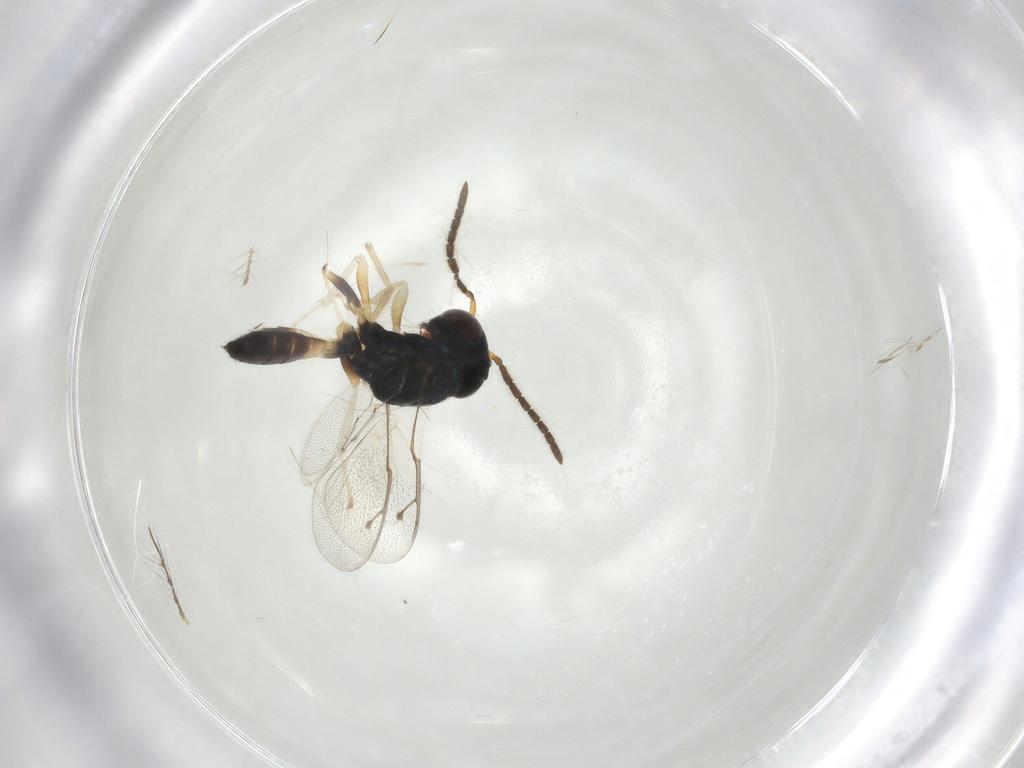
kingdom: Animalia
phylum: Arthropoda
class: Insecta
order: Hymenoptera
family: Pteromalidae
